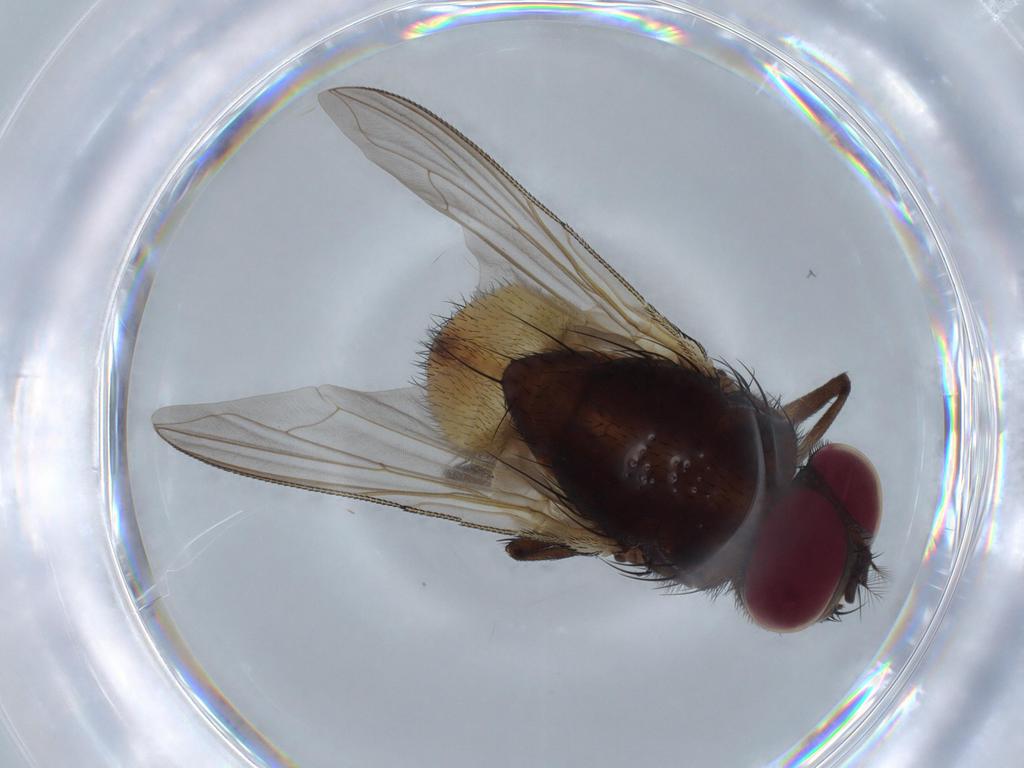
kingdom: Animalia
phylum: Arthropoda
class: Insecta
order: Diptera
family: Phoridae
